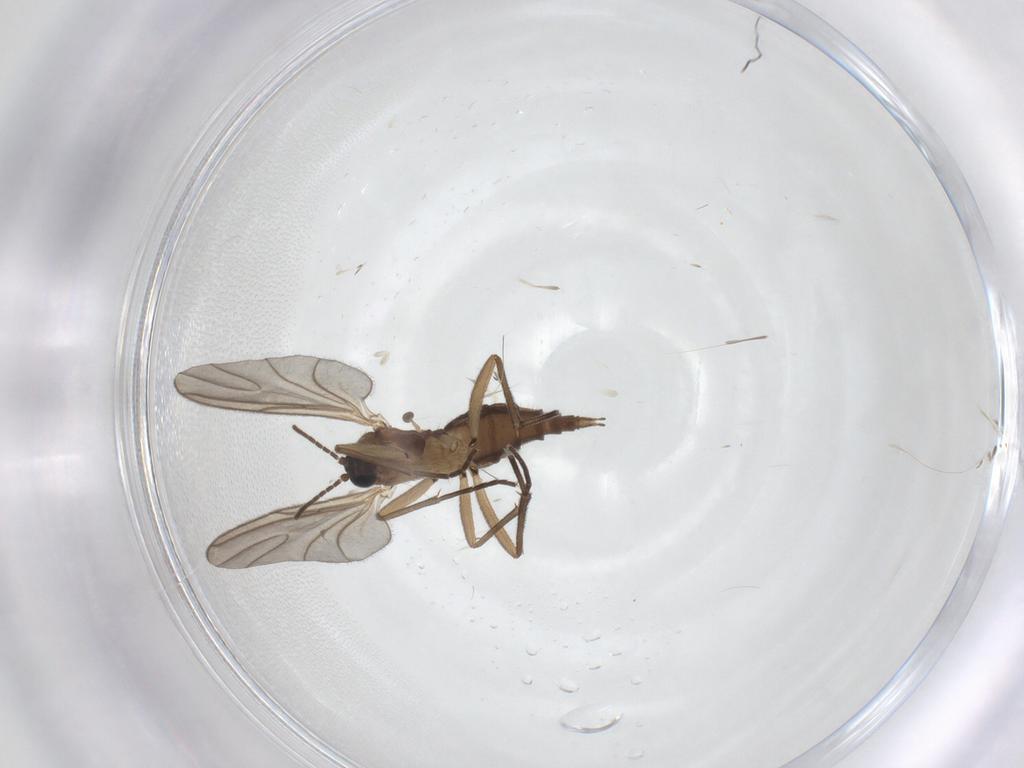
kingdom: Animalia
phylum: Arthropoda
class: Insecta
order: Diptera
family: Sciaridae
